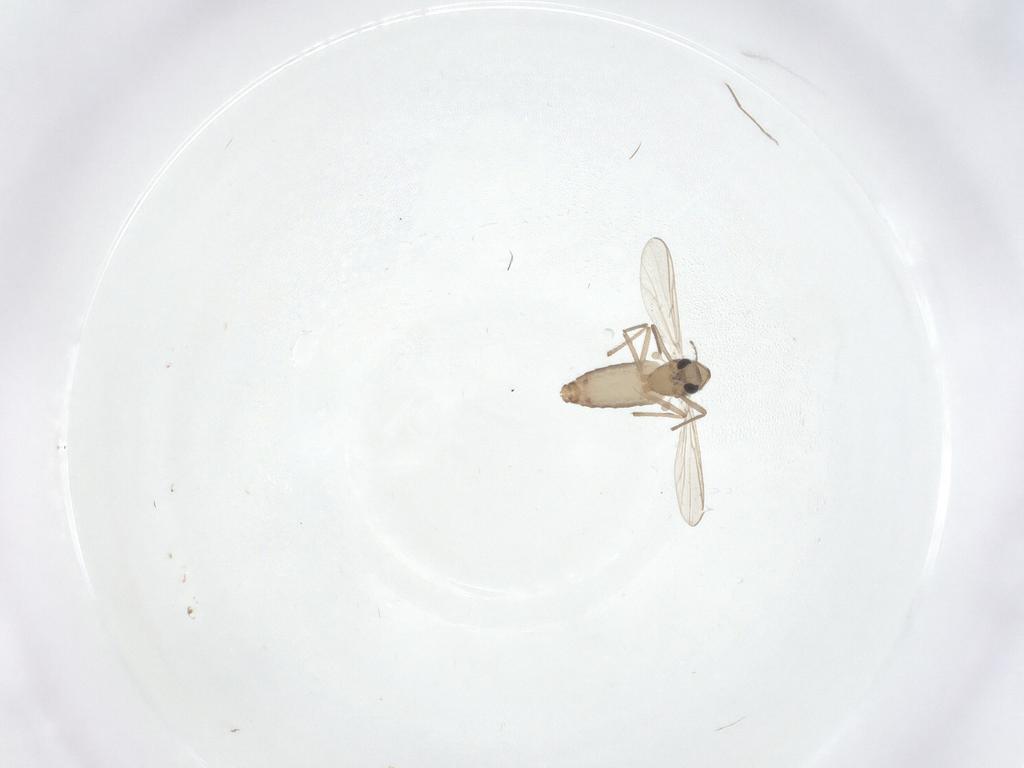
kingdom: Animalia
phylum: Arthropoda
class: Insecta
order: Diptera
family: Chironomidae
